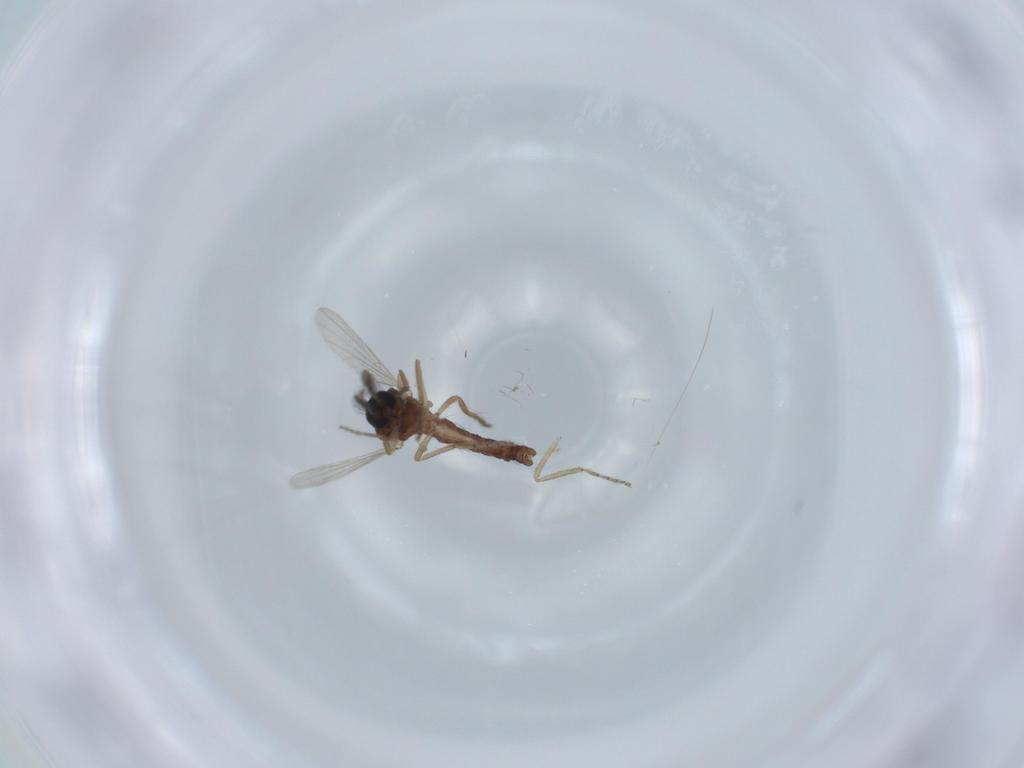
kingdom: Animalia
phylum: Arthropoda
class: Insecta
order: Diptera
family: Ceratopogonidae
